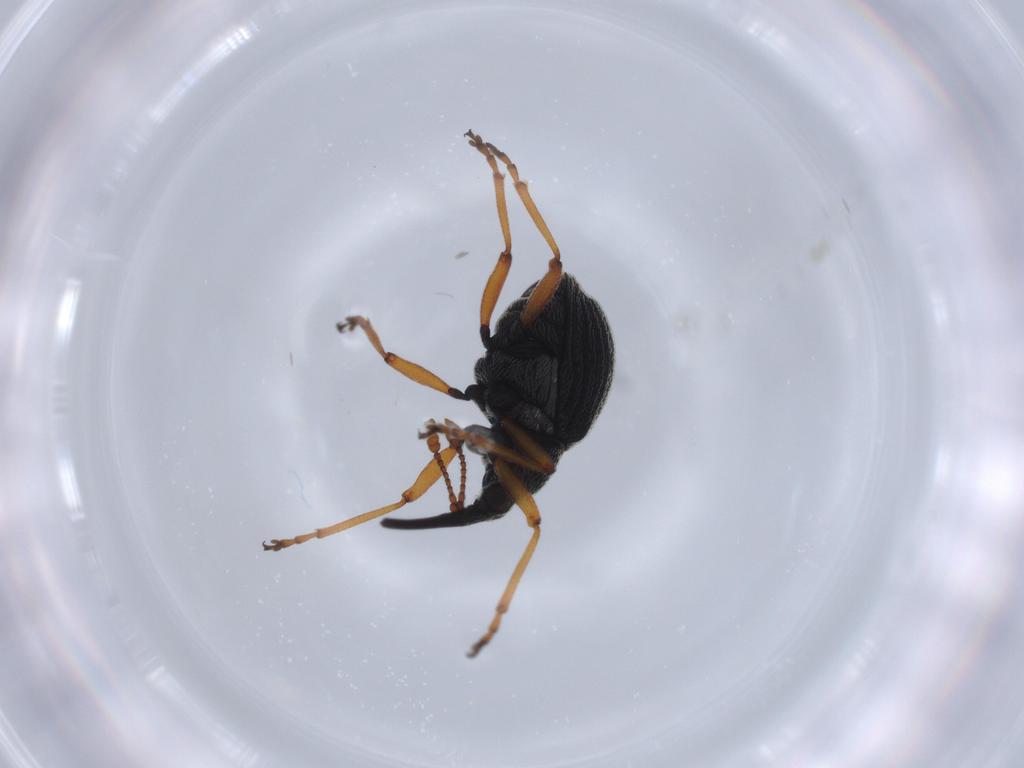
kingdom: Animalia
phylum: Arthropoda
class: Insecta
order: Coleoptera
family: Brentidae
